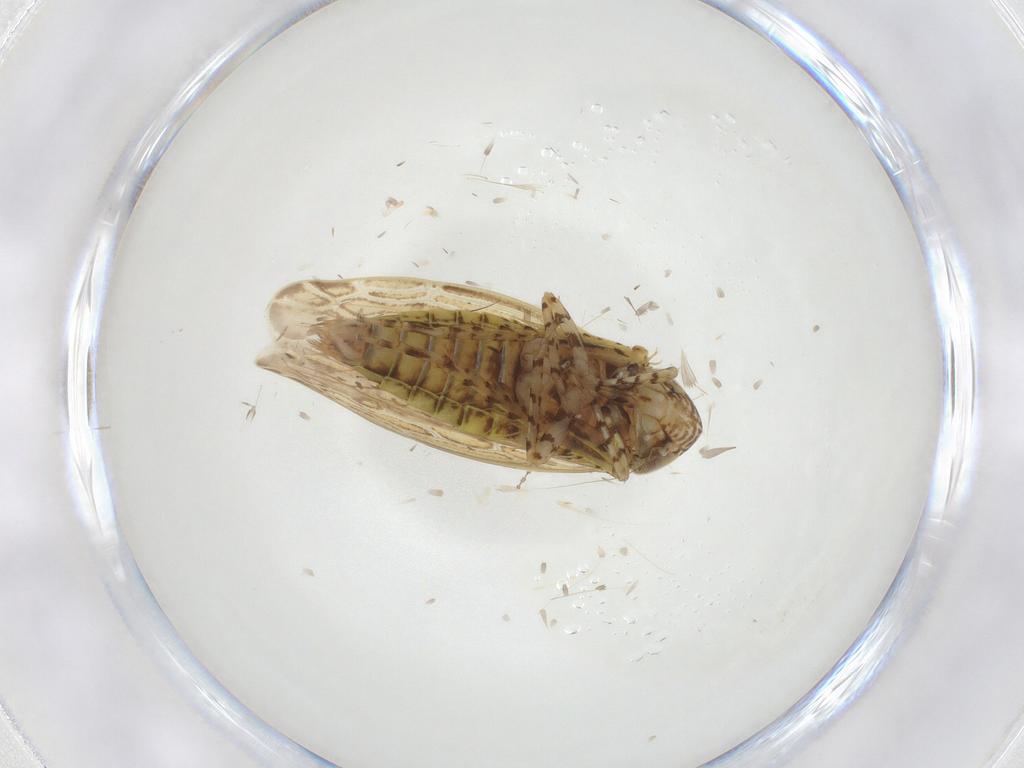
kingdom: Animalia
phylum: Arthropoda
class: Insecta
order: Hemiptera
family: Cicadellidae
